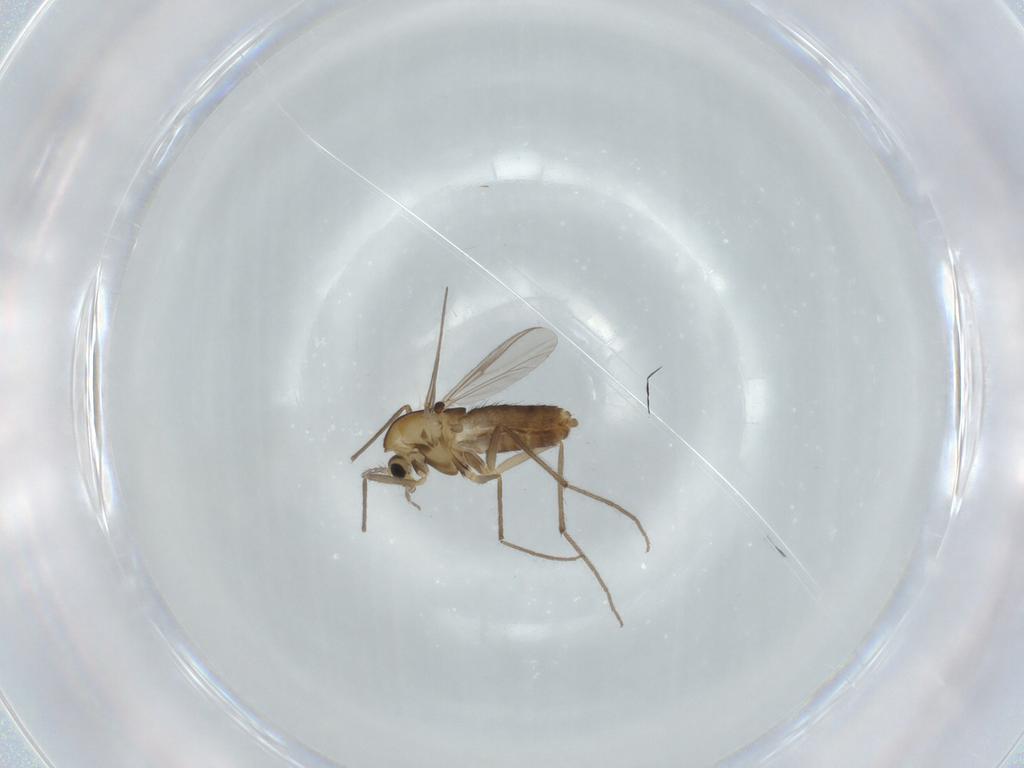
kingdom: Animalia
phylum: Arthropoda
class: Insecta
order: Diptera
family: Chironomidae
